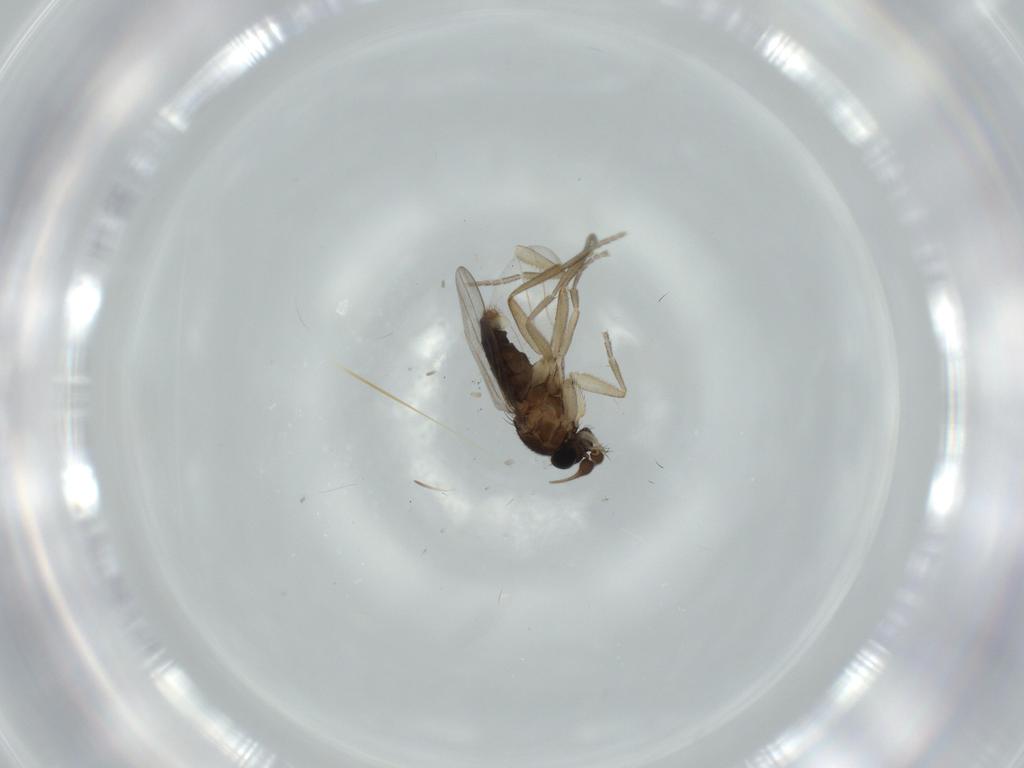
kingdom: Animalia
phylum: Arthropoda
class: Insecta
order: Diptera
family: Phoridae
